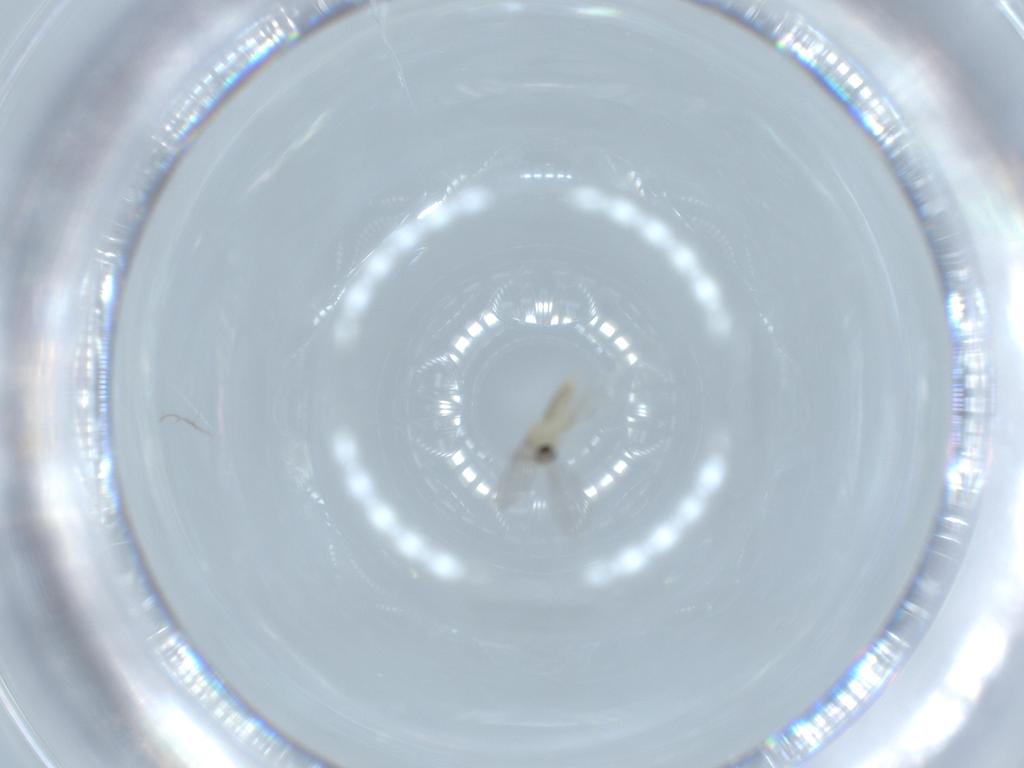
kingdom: Animalia
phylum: Arthropoda
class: Insecta
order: Diptera
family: Cecidomyiidae
